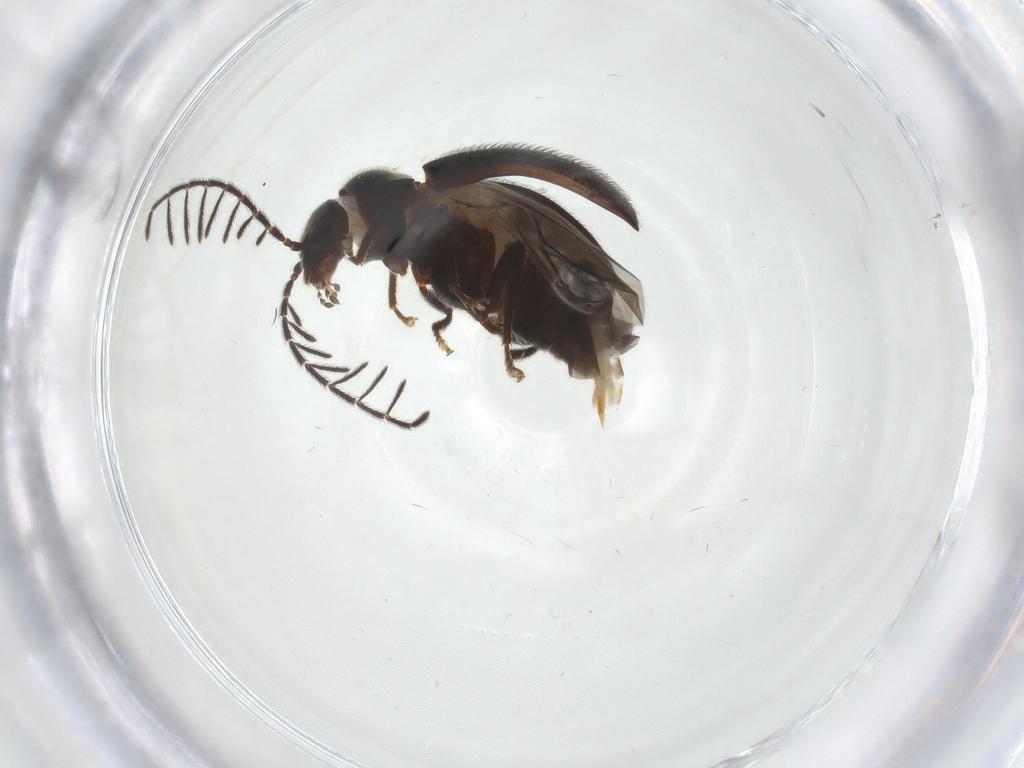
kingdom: Animalia
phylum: Arthropoda
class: Insecta
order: Coleoptera
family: Ptilodactylidae
